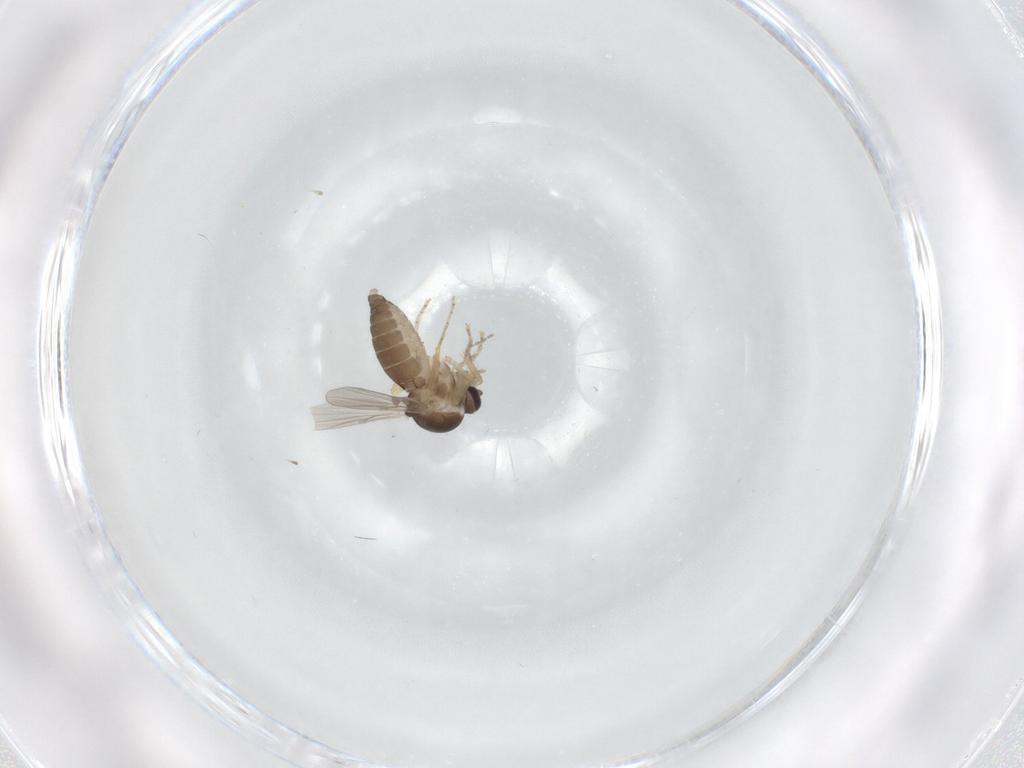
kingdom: Animalia
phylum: Arthropoda
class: Insecta
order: Diptera
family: Ceratopogonidae
